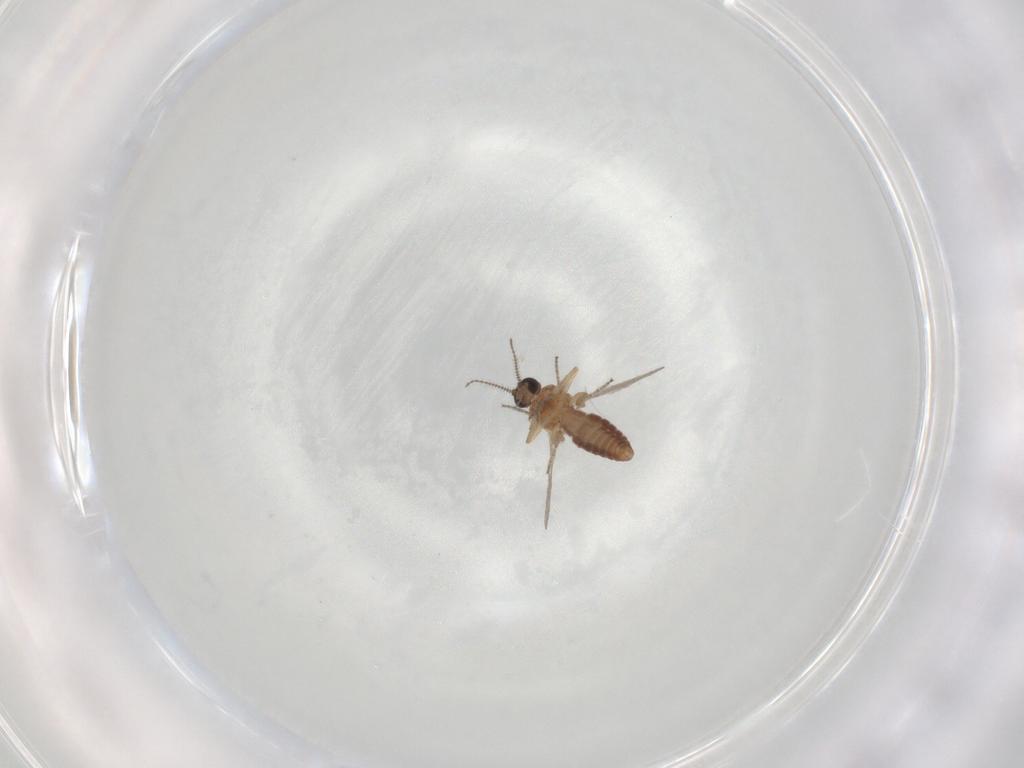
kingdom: Animalia
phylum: Arthropoda
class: Insecta
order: Diptera
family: Ceratopogonidae
